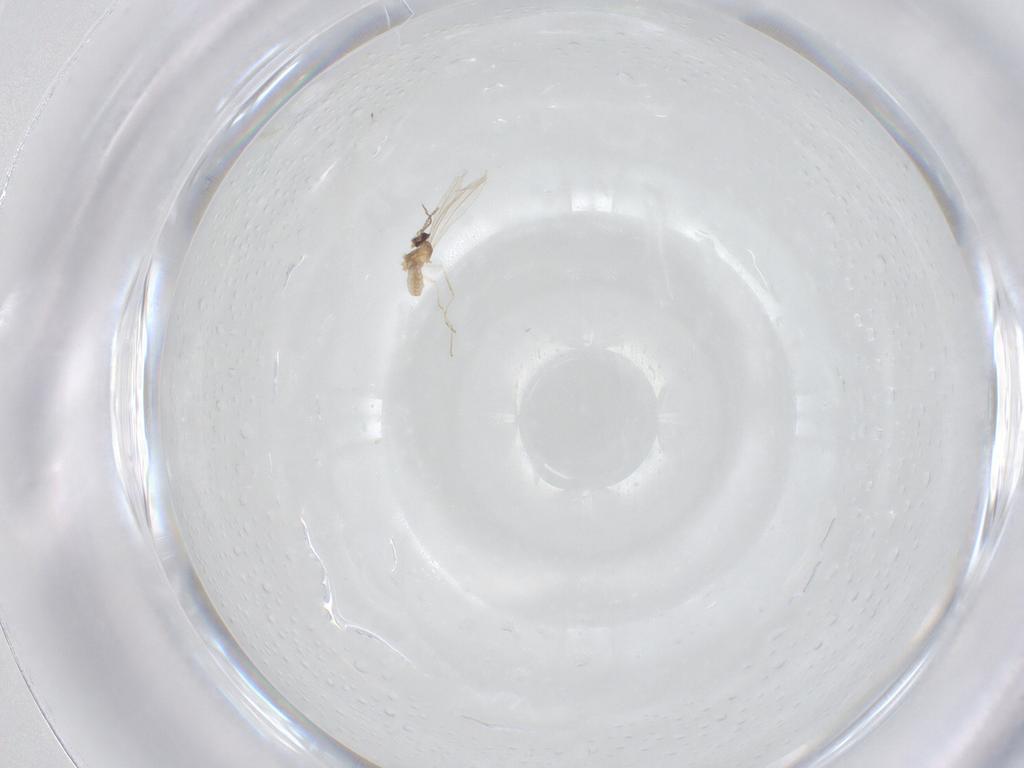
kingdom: Animalia
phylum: Arthropoda
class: Insecta
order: Diptera
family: Cecidomyiidae
